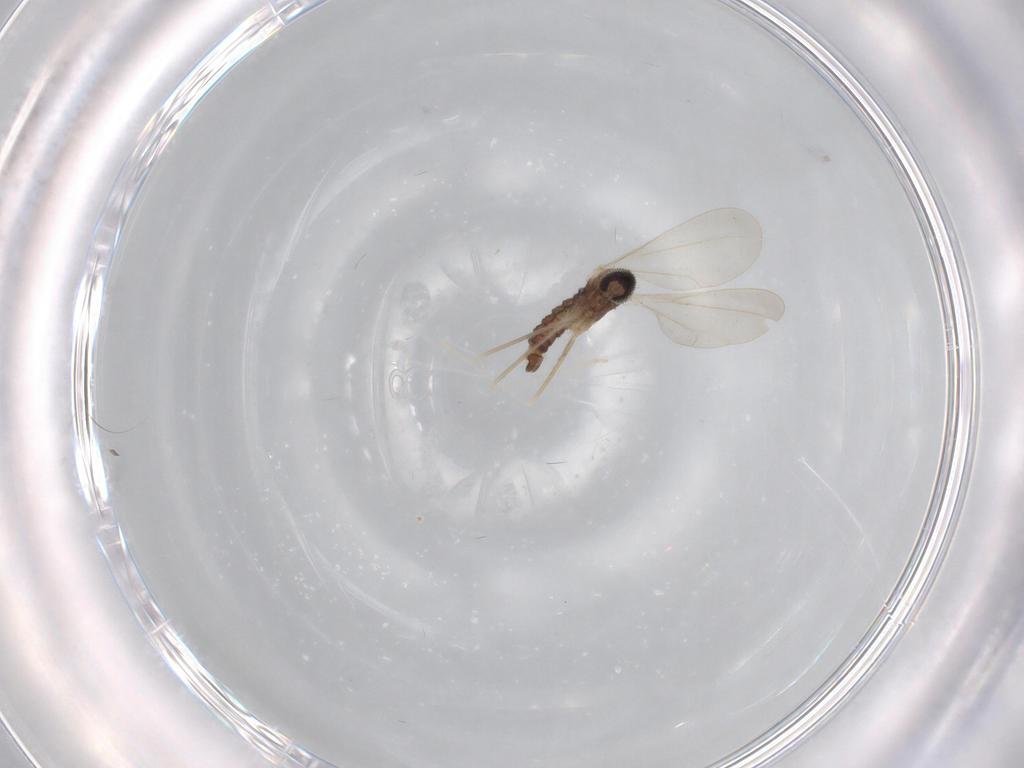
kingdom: Animalia
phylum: Arthropoda
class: Insecta
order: Diptera
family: Cecidomyiidae
